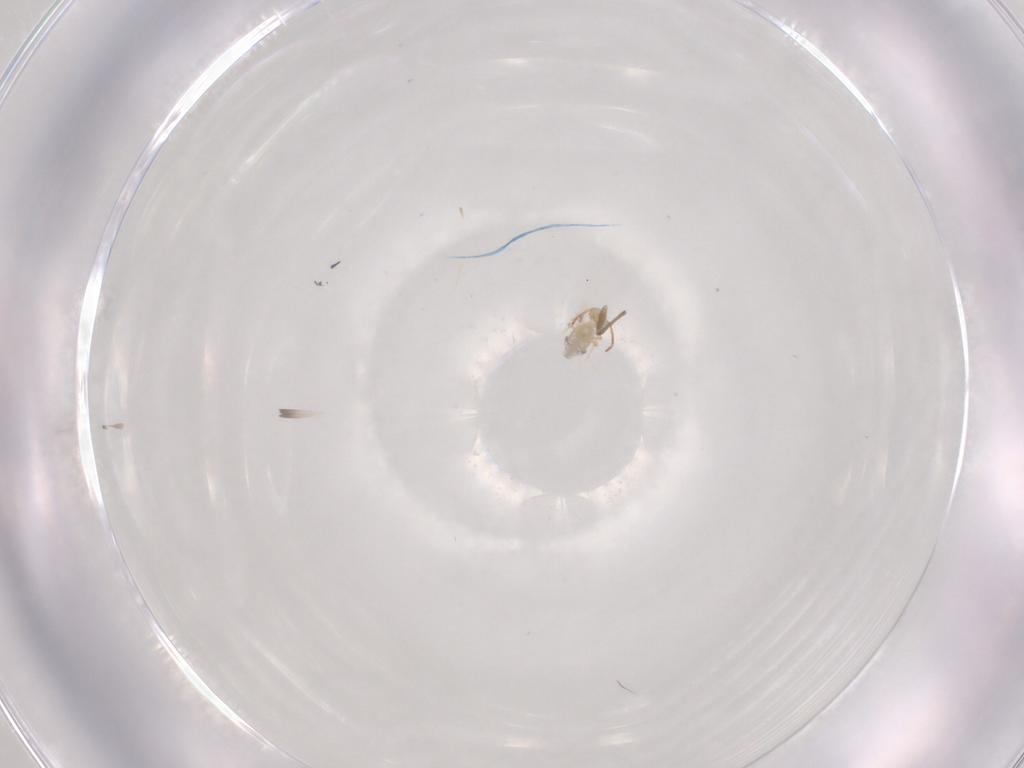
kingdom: Animalia
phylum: Arthropoda
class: Collembola
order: Symphypleona
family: Bourletiellidae
